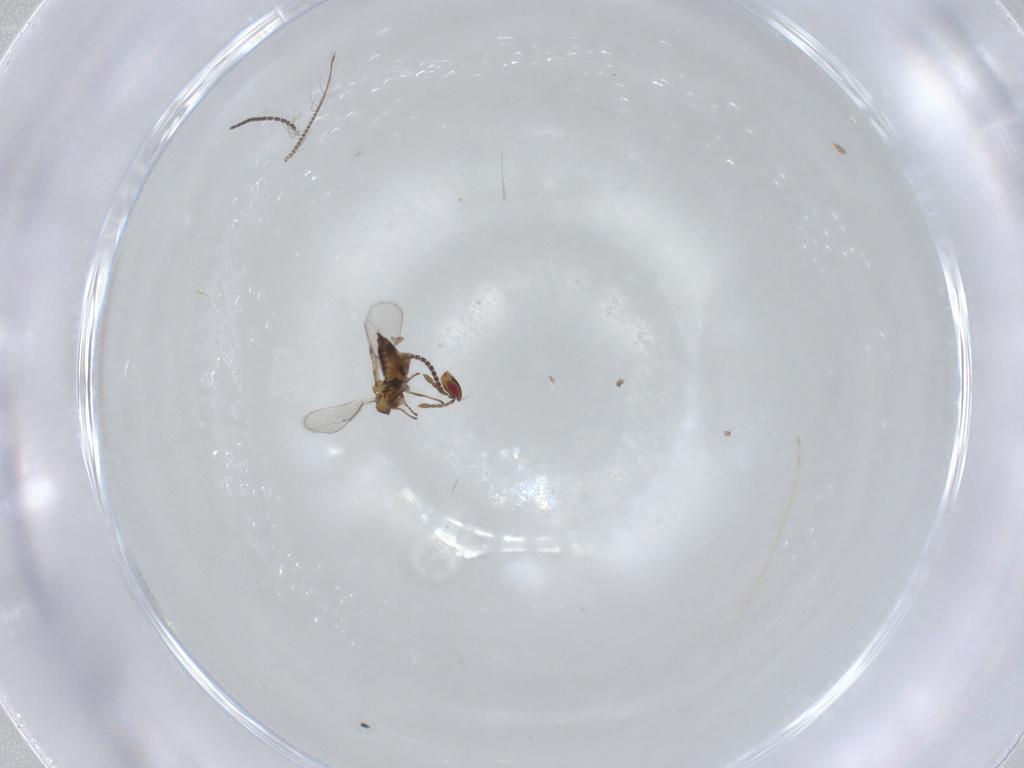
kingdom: Animalia
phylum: Arthropoda
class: Insecta
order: Hymenoptera
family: Eulophidae
